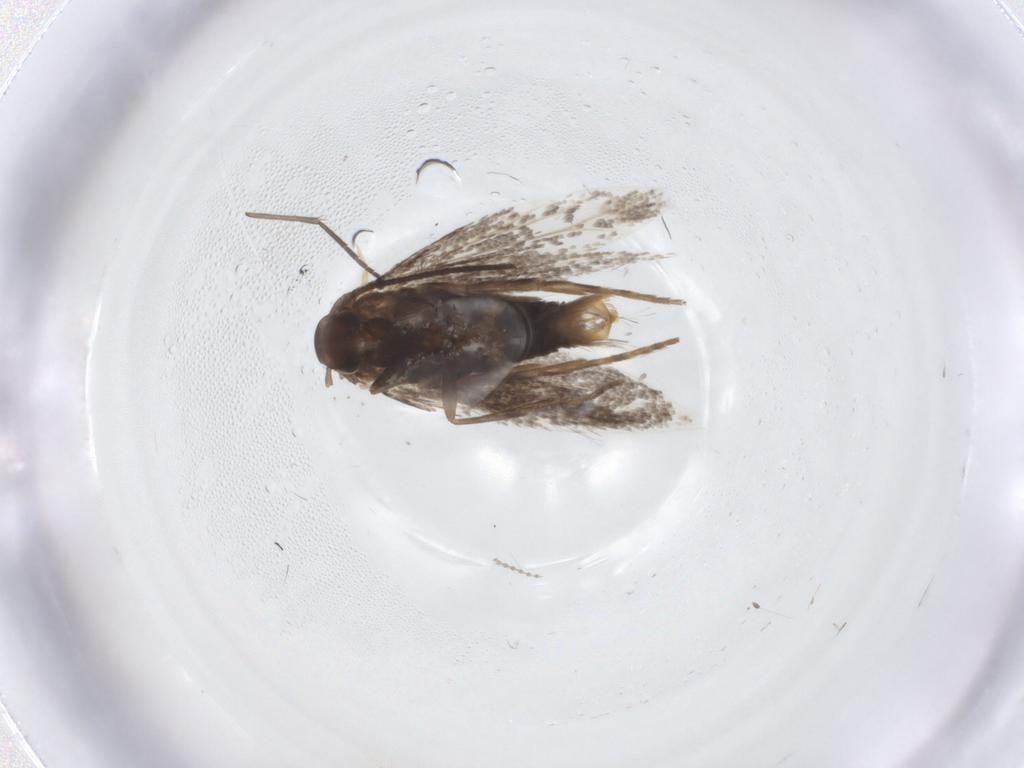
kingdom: Animalia
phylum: Arthropoda
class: Insecta
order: Lepidoptera
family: Elachistidae
